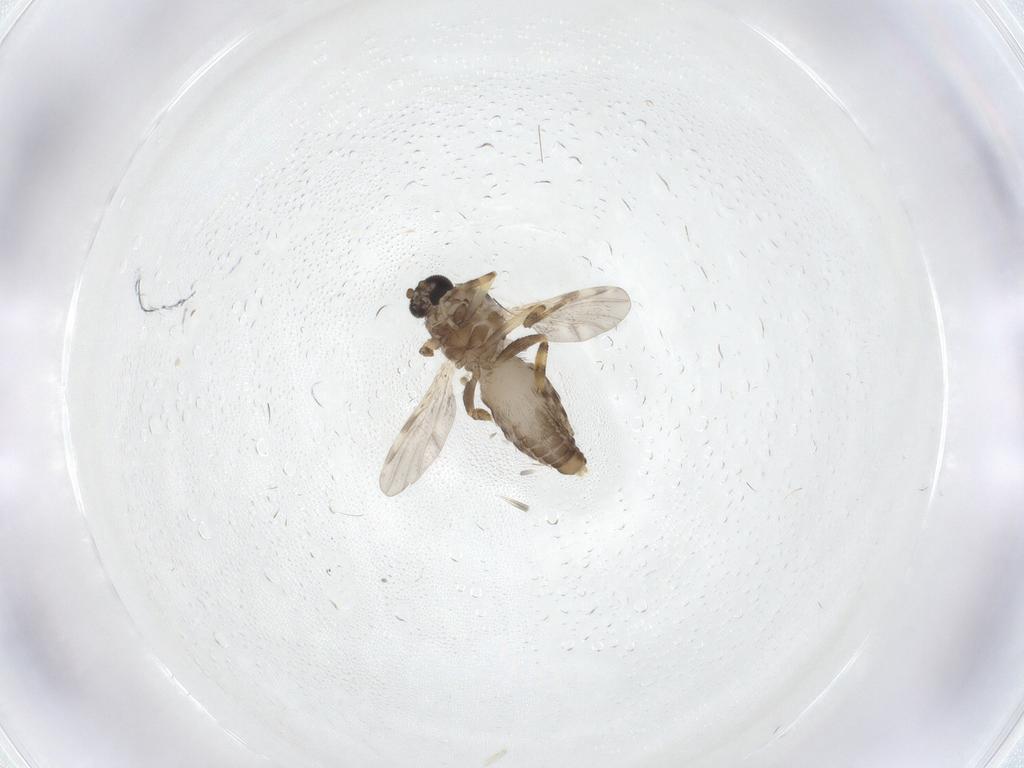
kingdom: Animalia
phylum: Arthropoda
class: Insecta
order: Diptera
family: Ceratopogonidae
